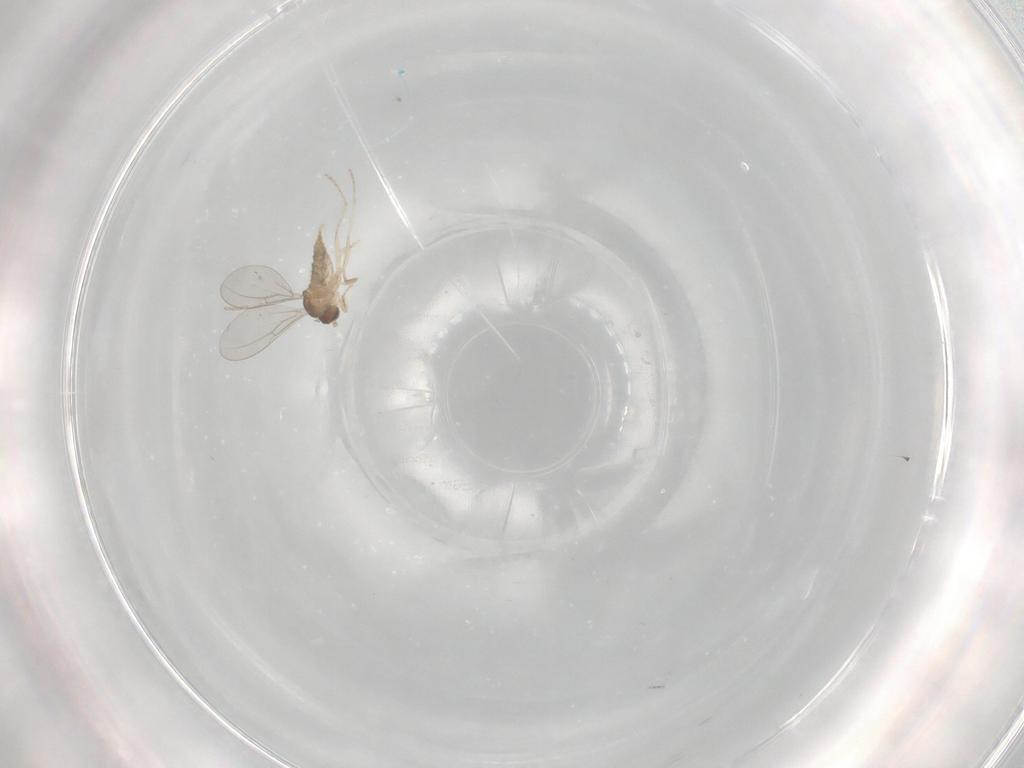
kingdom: Animalia
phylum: Arthropoda
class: Insecta
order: Diptera
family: Cecidomyiidae
